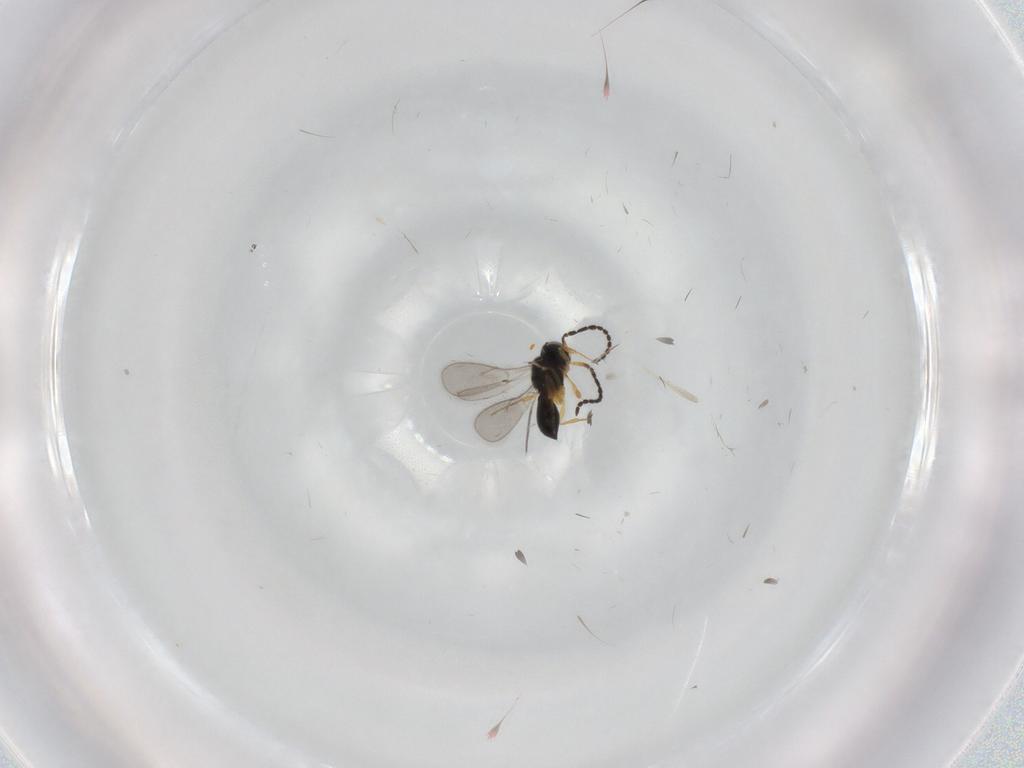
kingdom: Animalia
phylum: Arthropoda
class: Insecta
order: Hymenoptera
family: Scelionidae
